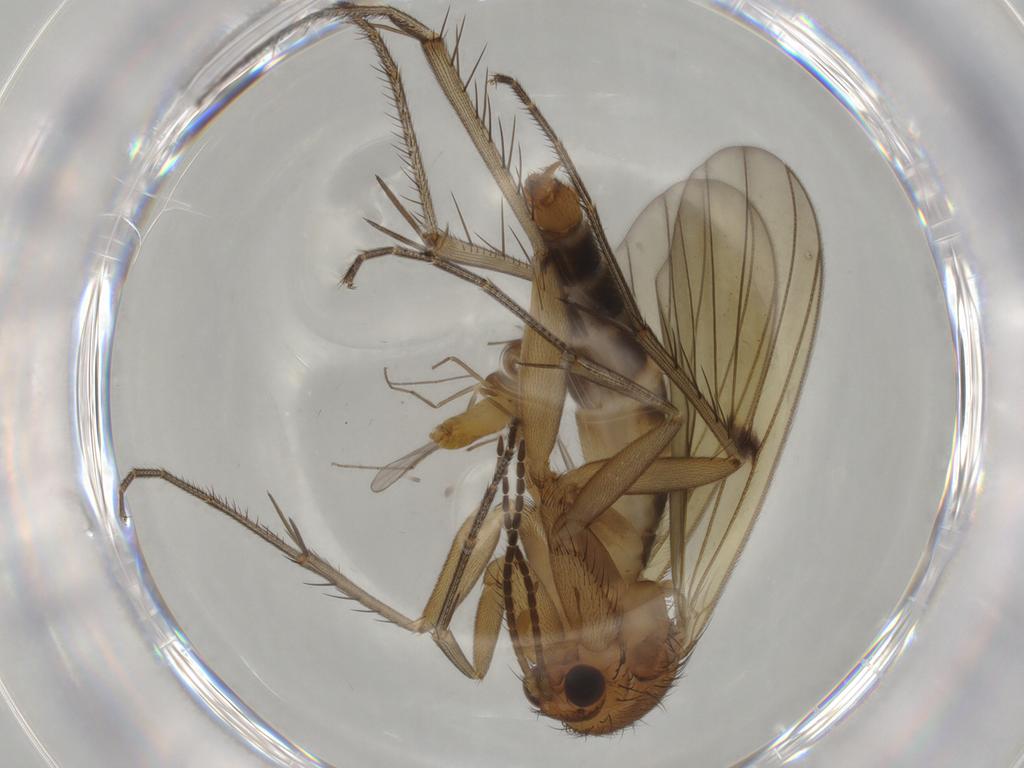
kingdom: Animalia
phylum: Arthropoda
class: Insecta
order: Diptera
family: Chironomidae
